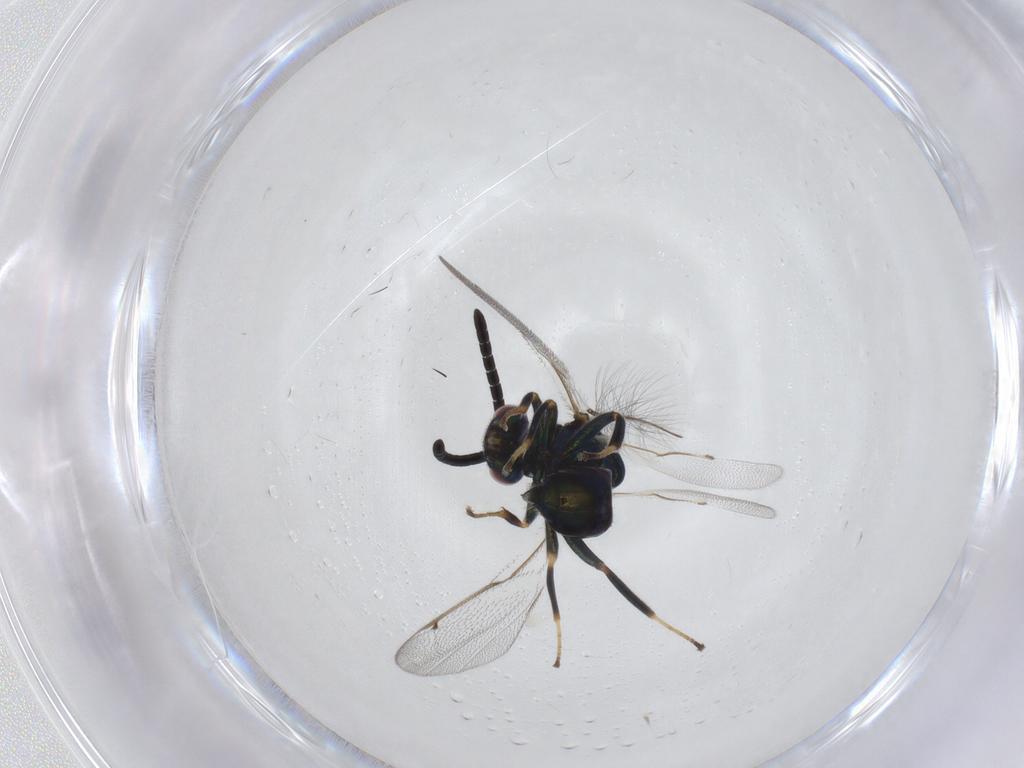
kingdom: Animalia
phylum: Arthropoda
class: Insecta
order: Hymenoptera
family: Torymidae
